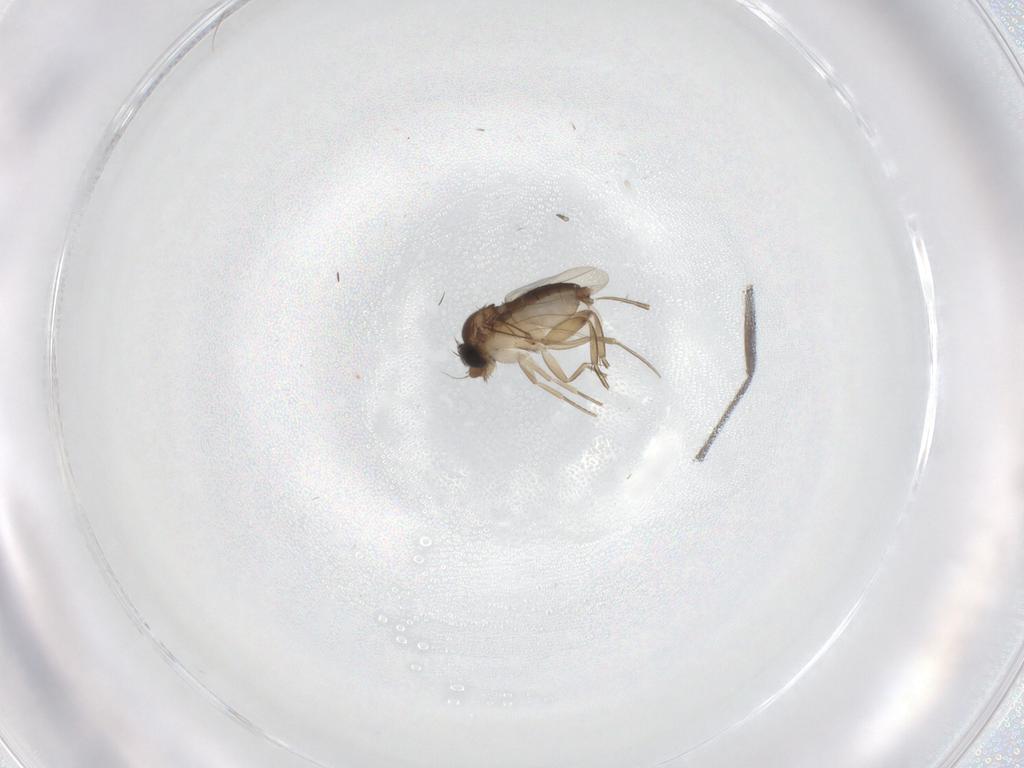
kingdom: Animalia
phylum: Arthropoda
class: Insecta
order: Diptera
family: Phoridae
